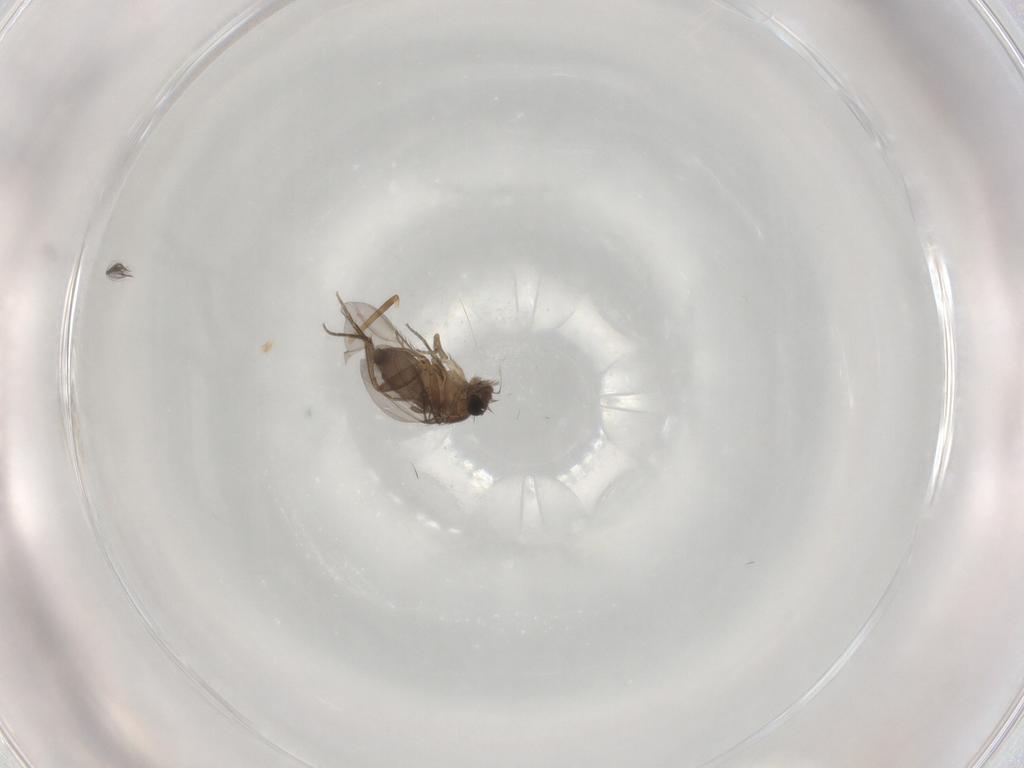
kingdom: Animalia
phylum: Arthropoda
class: Insecta
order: Diptera
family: Phoridae
